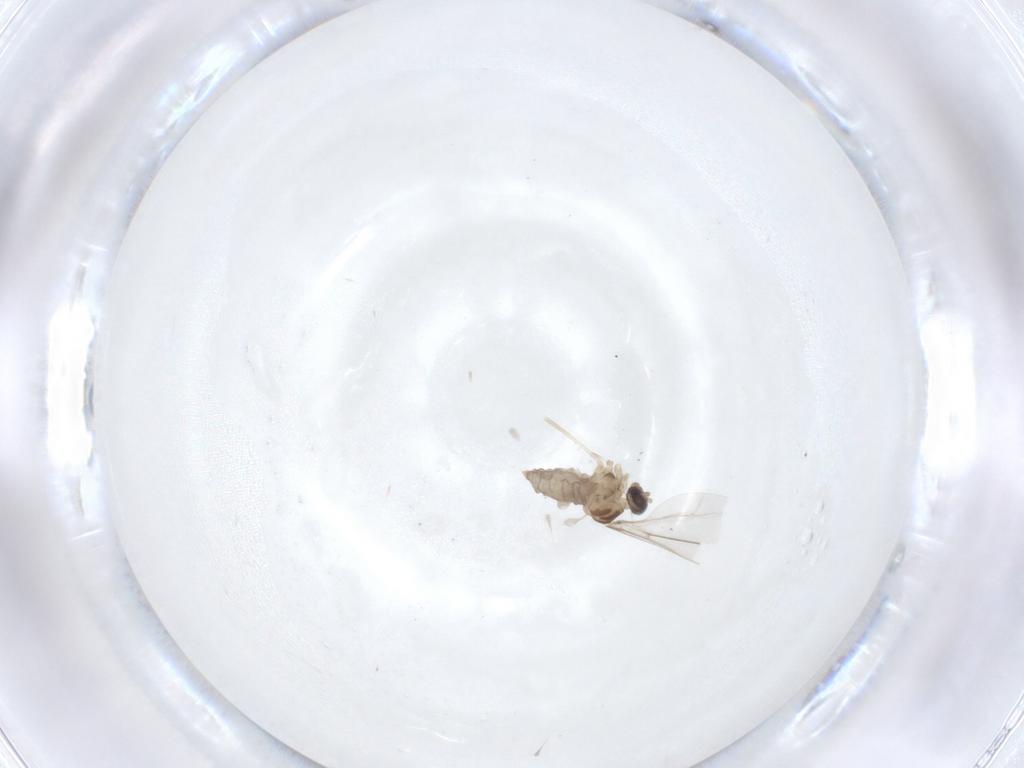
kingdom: Animalia
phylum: Arthropoda
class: Insecta
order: Diptera
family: Cecidomyiidae
